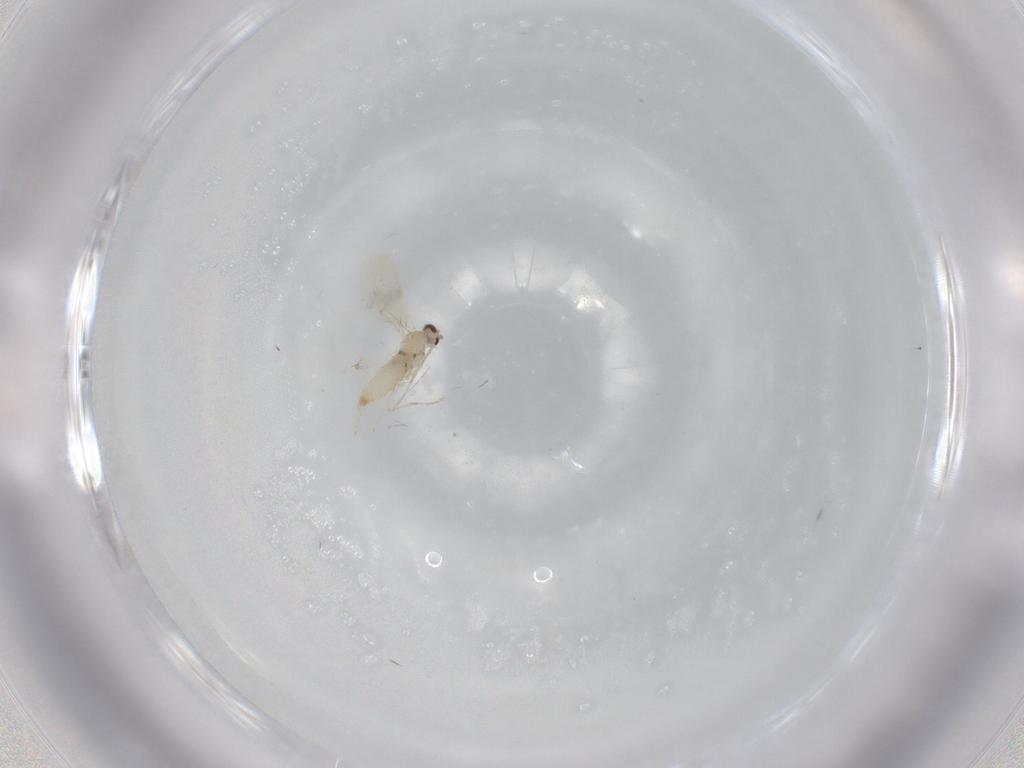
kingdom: Animalia
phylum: Arthropoda
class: Insecta
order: Diptera
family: Cecidomyiidae
